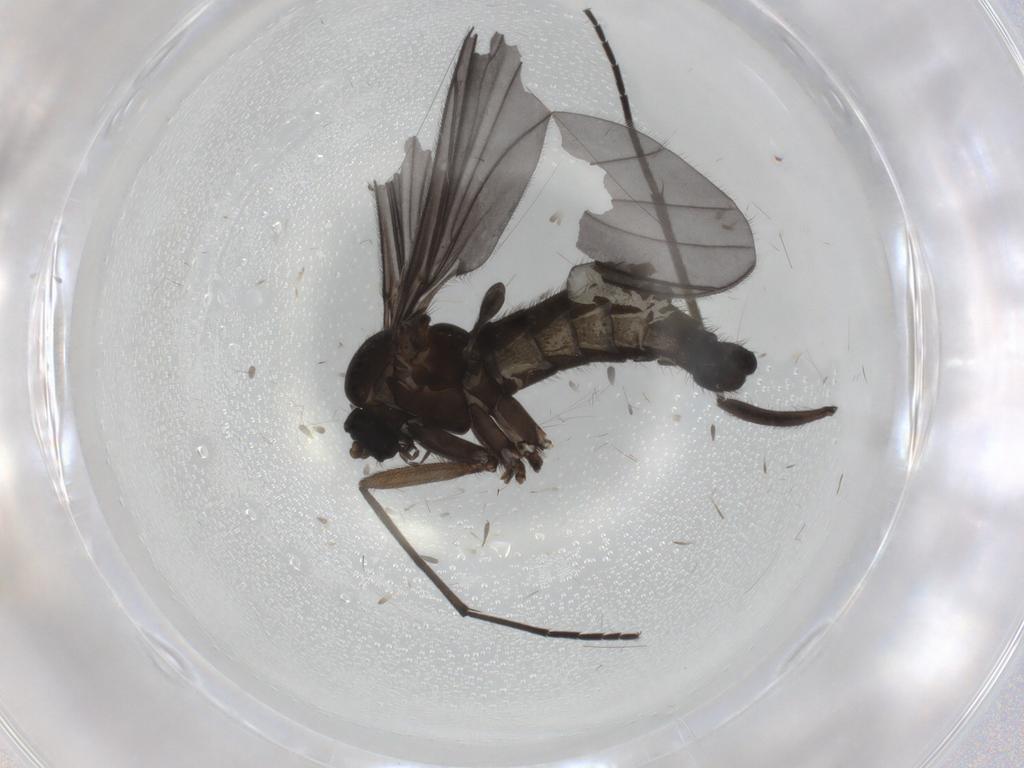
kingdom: Animalia
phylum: Arthropoda
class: Insecta
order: Diptera
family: Sciaridae
